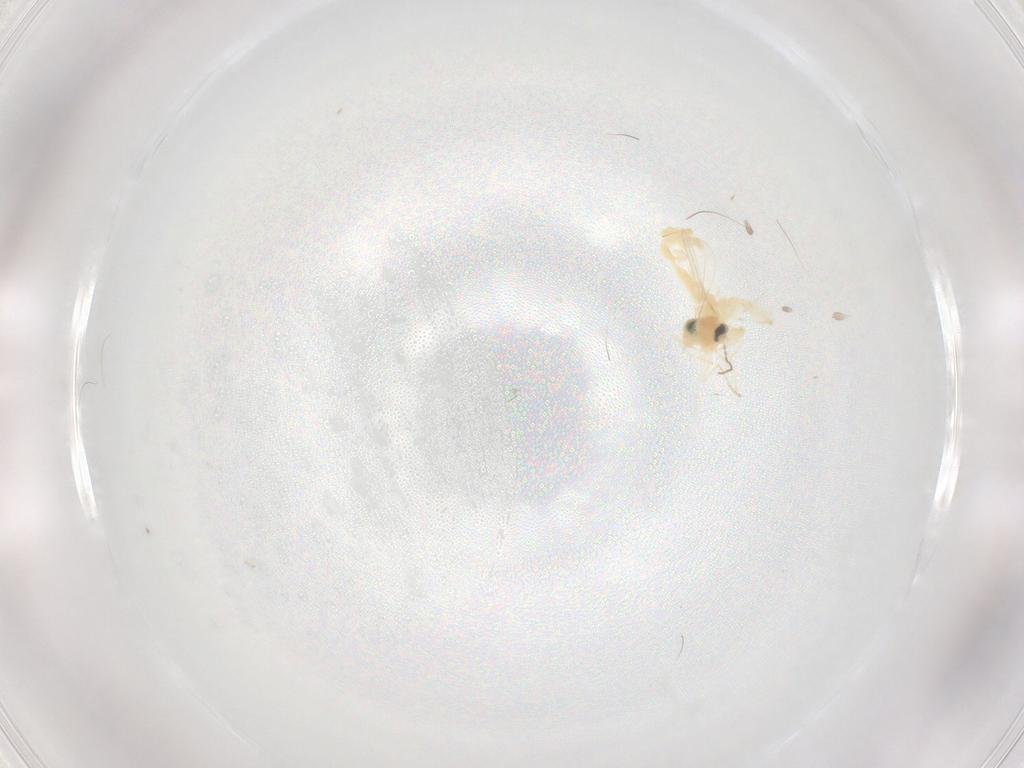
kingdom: Animalia
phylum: Arthropoda
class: Insecta
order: Diptera
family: Cecidomyiidae
